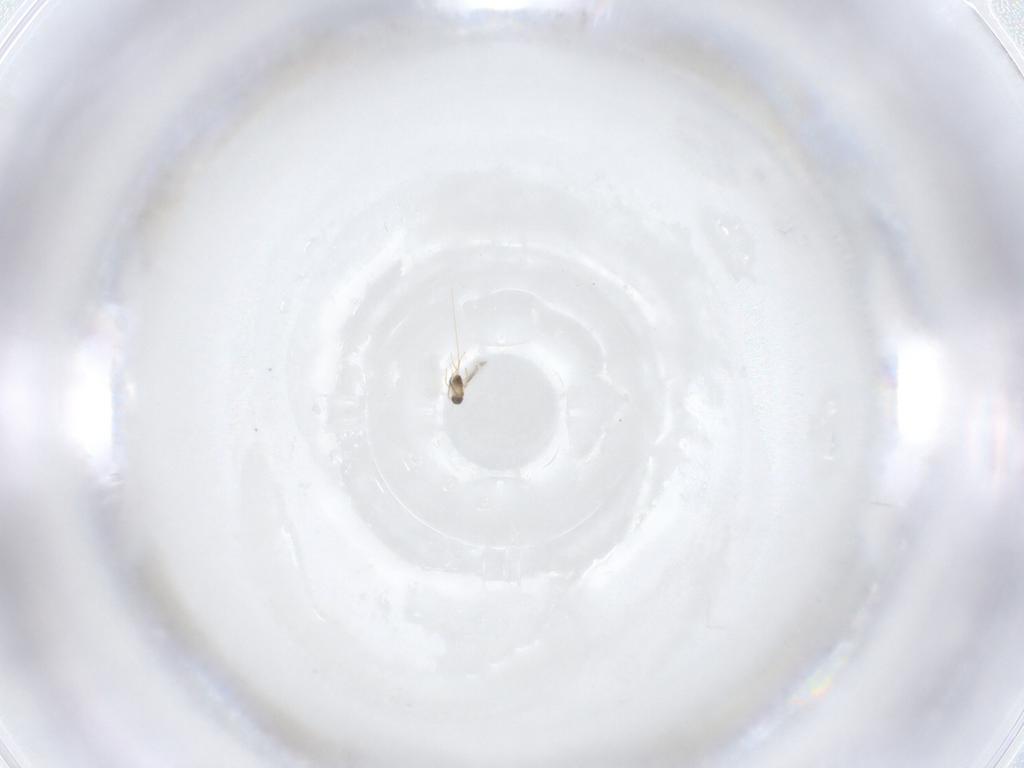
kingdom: Animalia
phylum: Arthropoda
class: Insecta
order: Hymenoptera
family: Mymaridae
